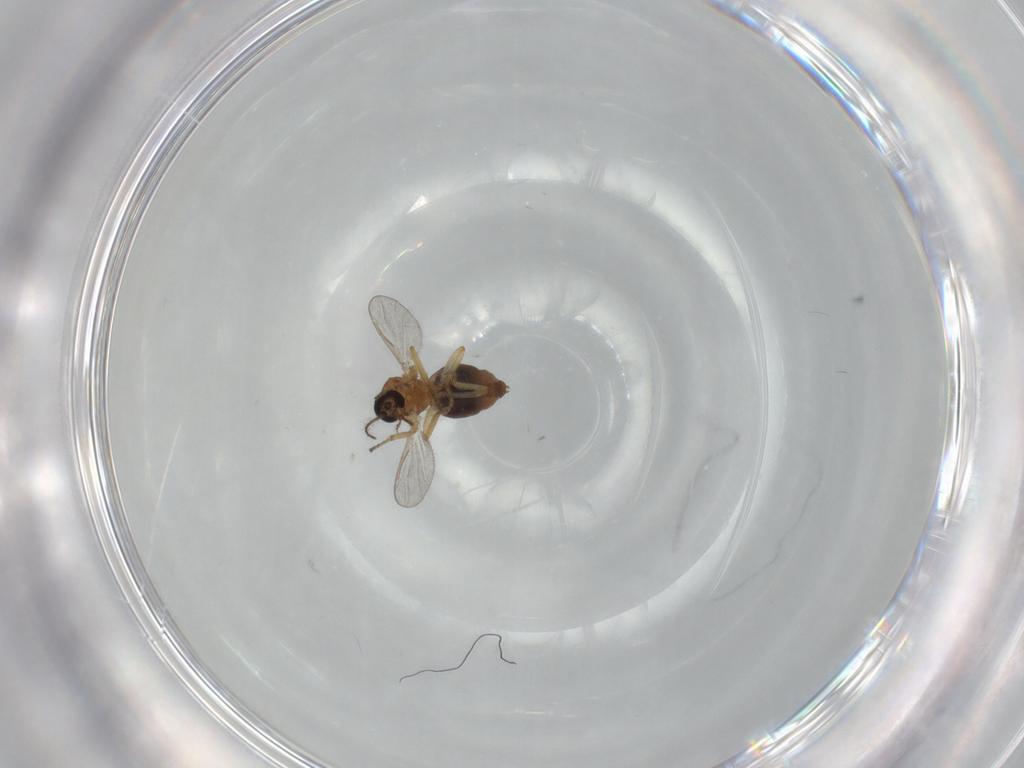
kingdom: Animalia
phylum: Arthropoda
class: Insecta
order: Diptera
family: Ceratopogonidae
